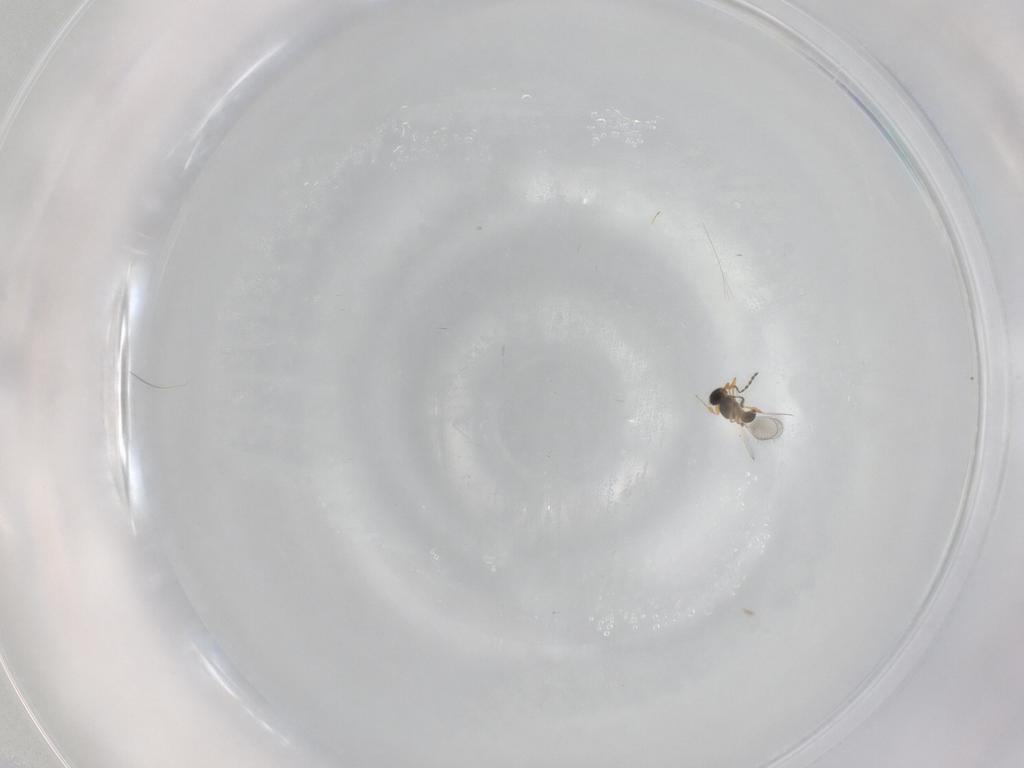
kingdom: Animalia
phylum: Arthropoda
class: Insecta
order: Hymenoptera
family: Platygastridae
